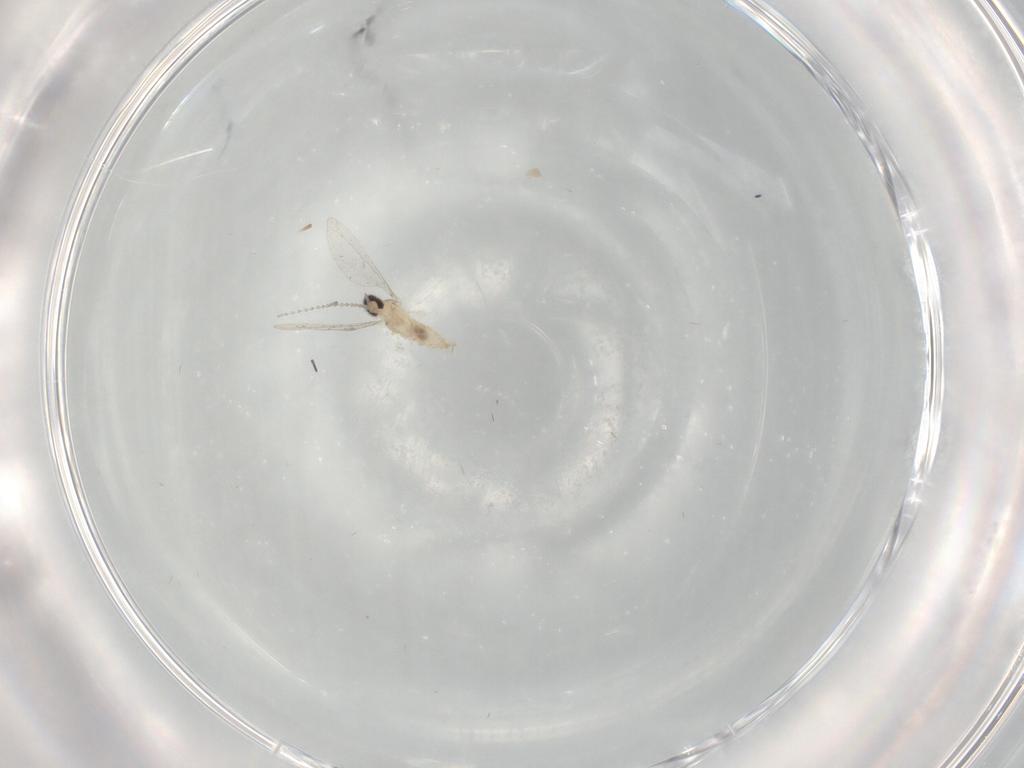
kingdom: Animalia
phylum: Arthropoda
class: Insecta
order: Diptera
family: Cecidomyiidae
